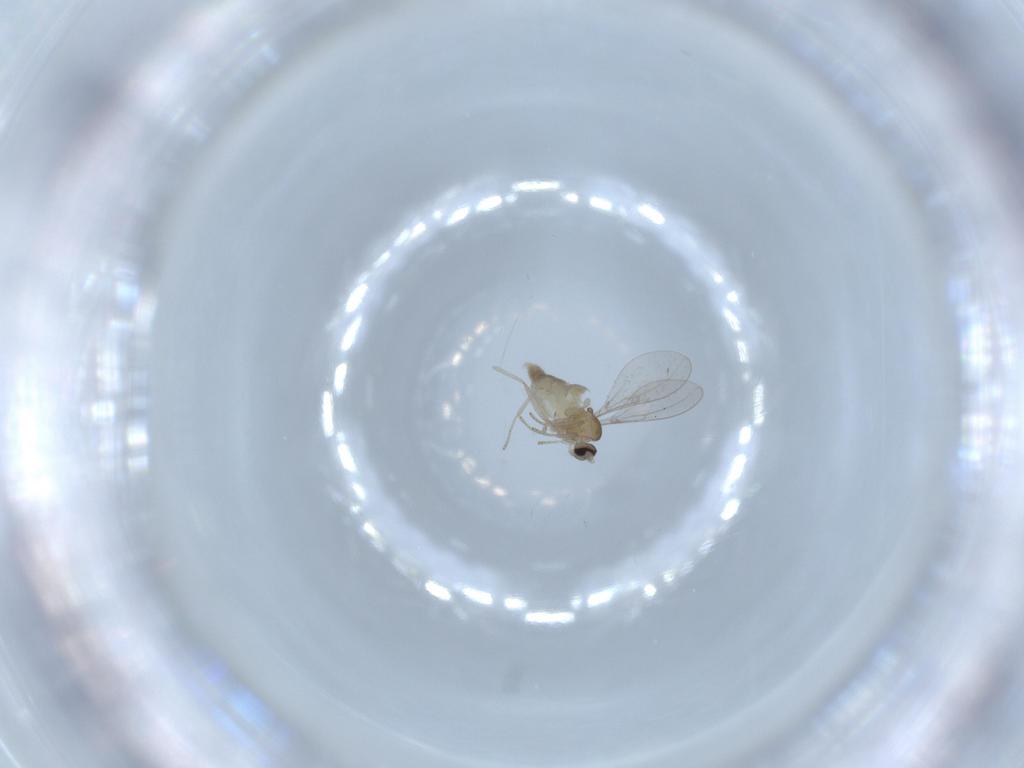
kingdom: Animalia
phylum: Arthropoda
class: Insecta
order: Diptera
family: Cecidomyiidae
